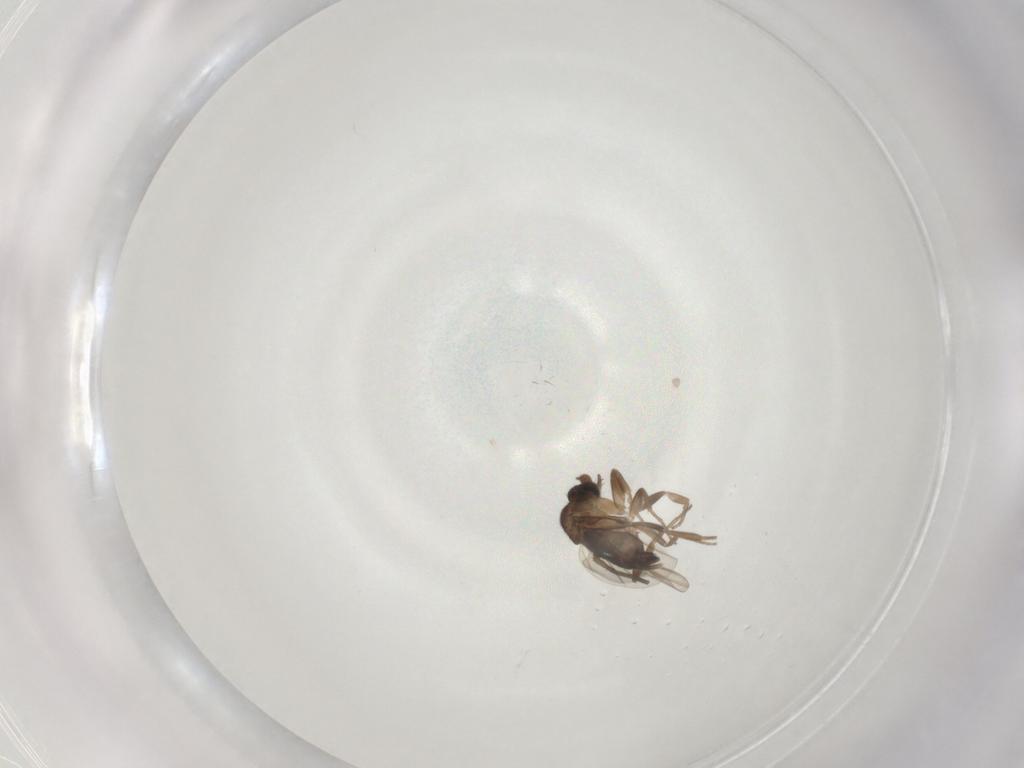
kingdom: Animalia
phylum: Arthropoda
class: Insecta
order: Diptera
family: Phoridae
